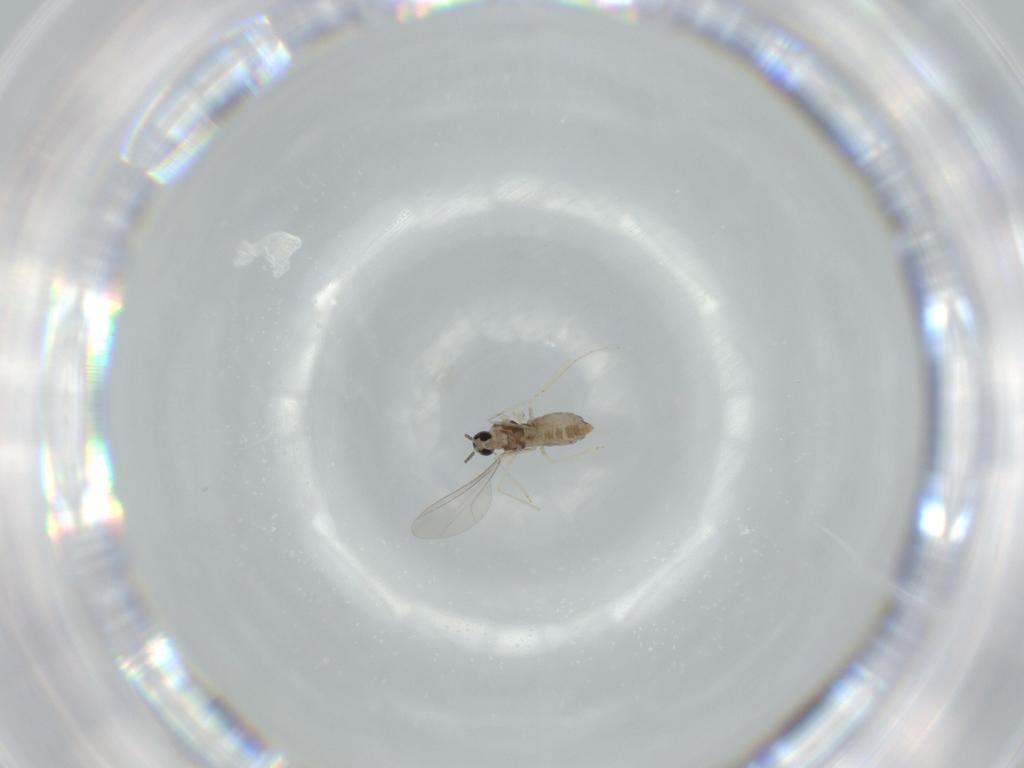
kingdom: Animalia
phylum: Arthropoda
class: Insecta
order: Diptera
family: Cecidomyiidae
